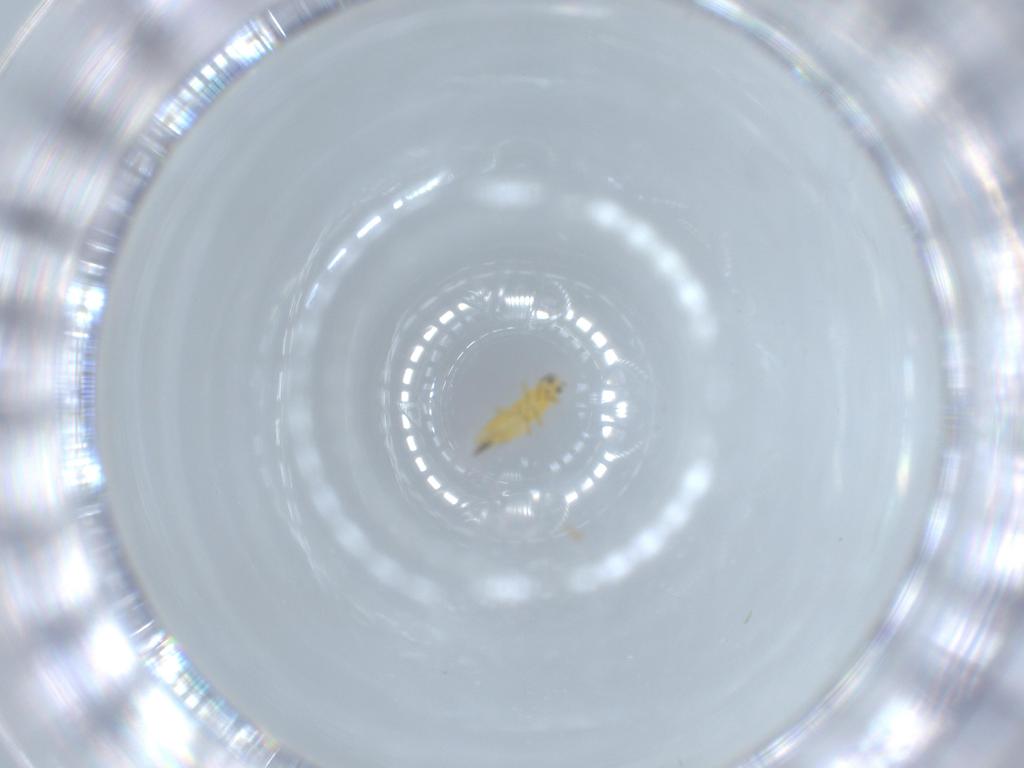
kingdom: Animalia
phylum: Arthropoda
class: Insecta
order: Thysanoptera
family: Thripidae
